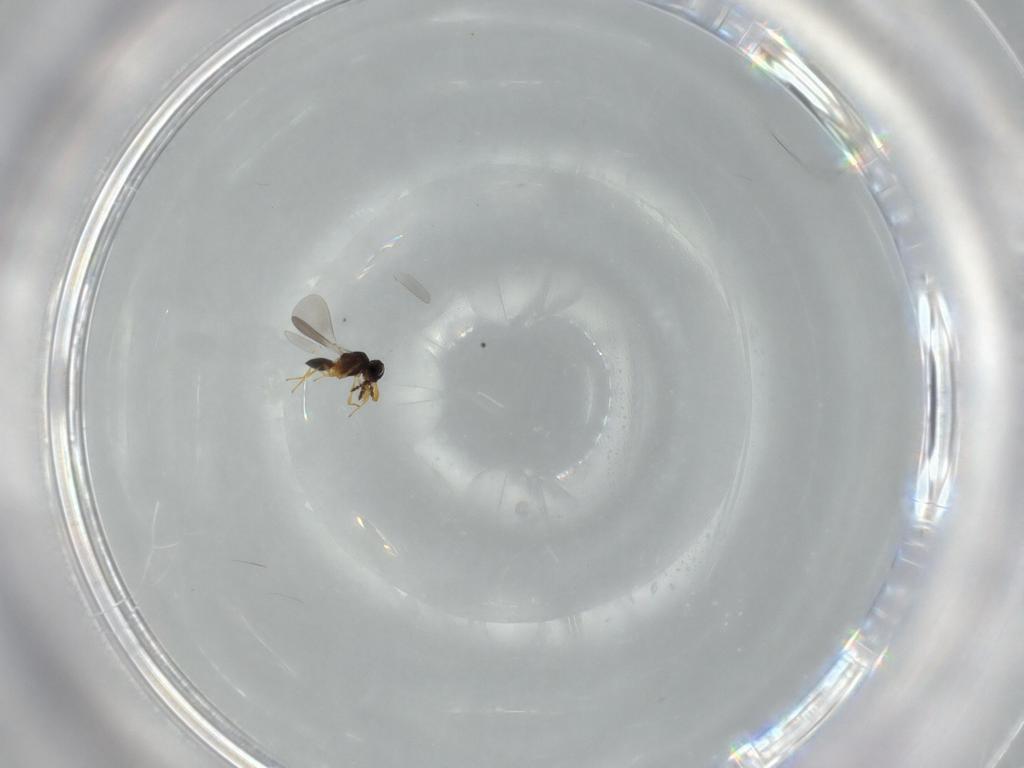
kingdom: Animalia
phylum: Arthropoda
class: Insecta
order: Hymenoptera
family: Platygastridae
